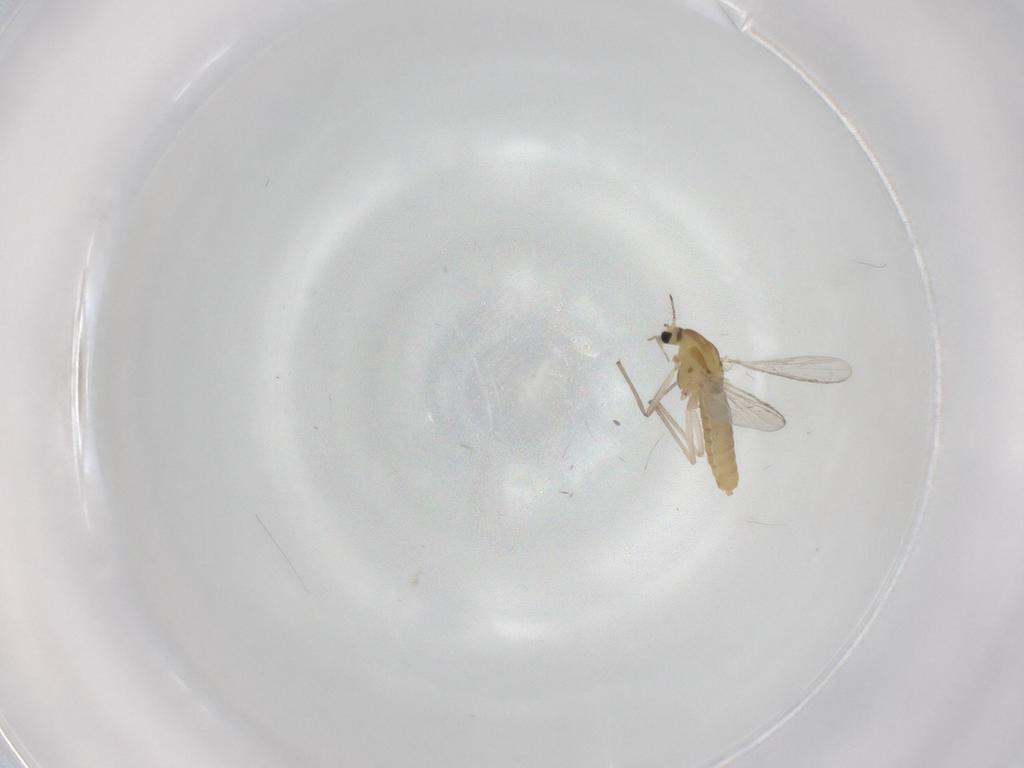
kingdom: Animalia
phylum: Arthropoda
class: Insecta
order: Diptera
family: Chironomidae
